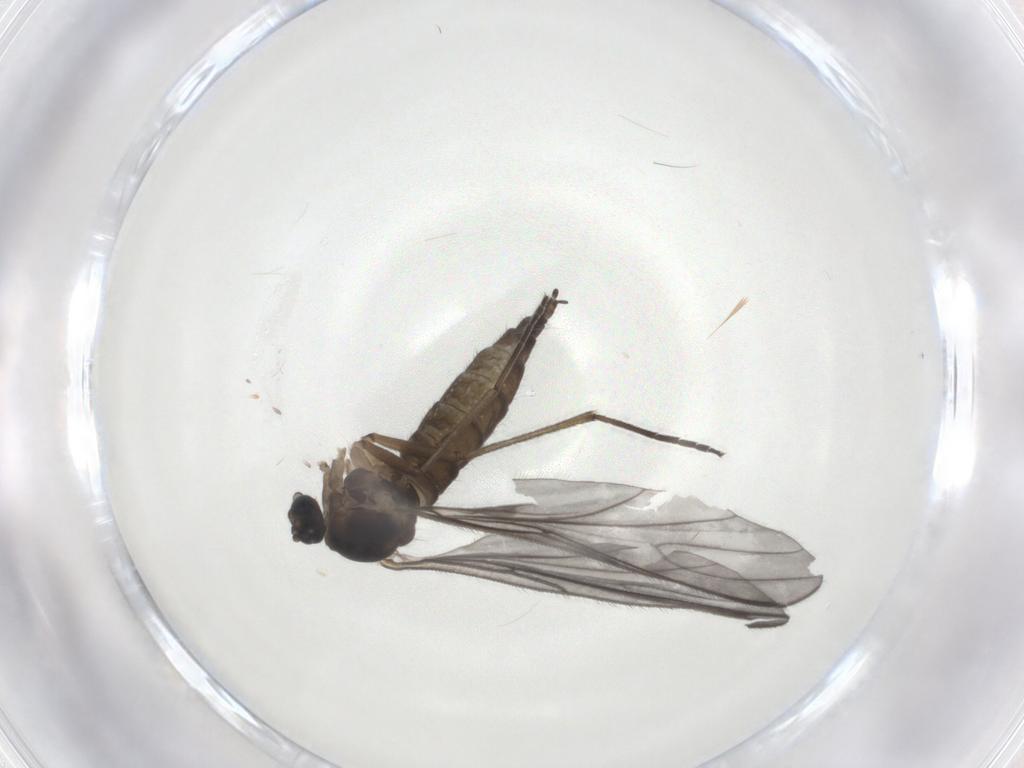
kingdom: Animalia
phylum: Arthropoda
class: Insecta
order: Diptera
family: Sciaridae
